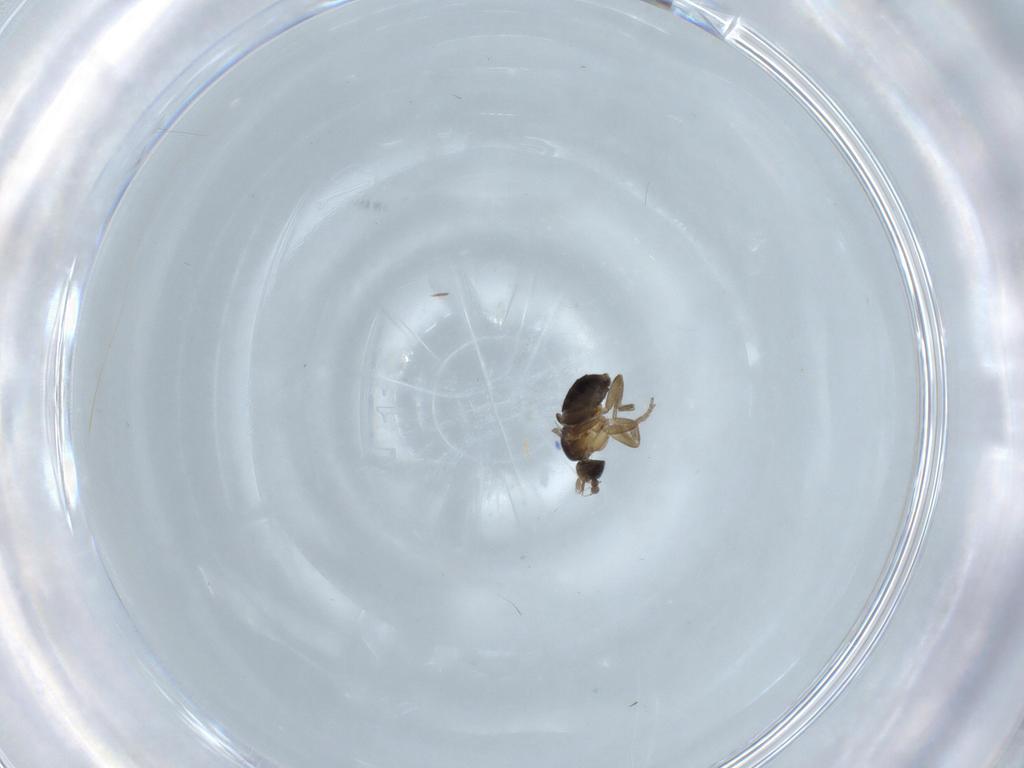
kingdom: Animalia
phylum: Arthropoda
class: Insecta
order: Diptera
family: Phoridae
